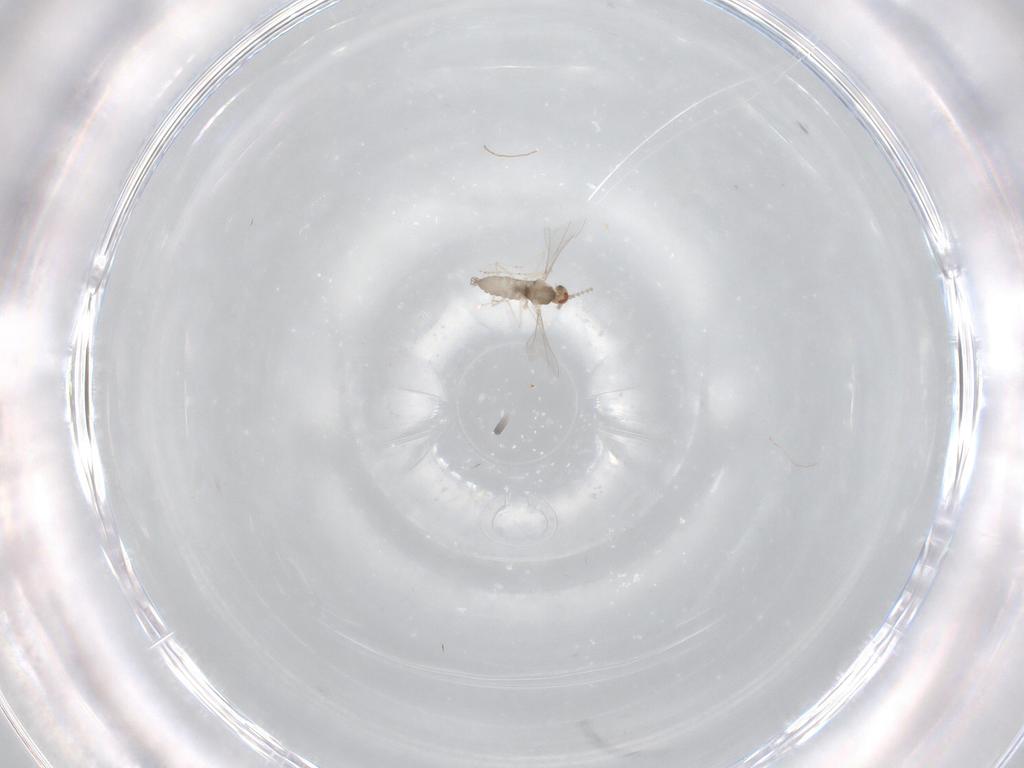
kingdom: Animalia
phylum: Arthropoda
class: Insecta
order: Diptera
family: Cecidomyiidae
